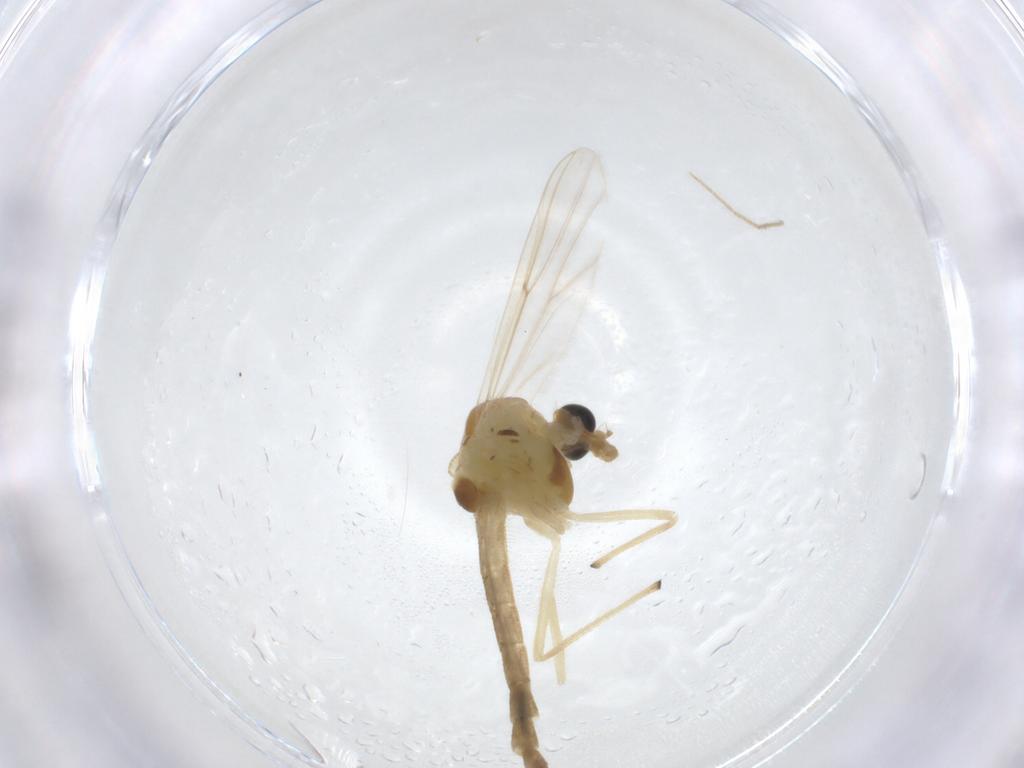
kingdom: Animalia
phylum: Arthropoda
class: Insecta
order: Diptera
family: Chironomidae
